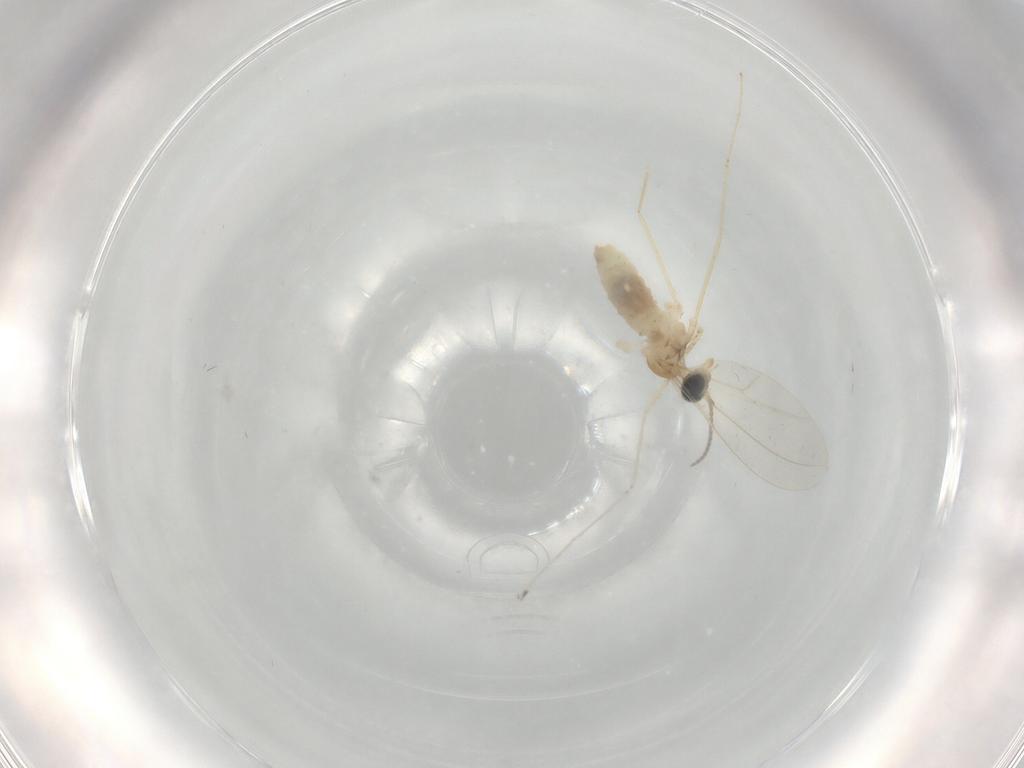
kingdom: Animalia
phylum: Arthropoda
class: Insecta
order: Diptera
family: Cecidomyiidae
